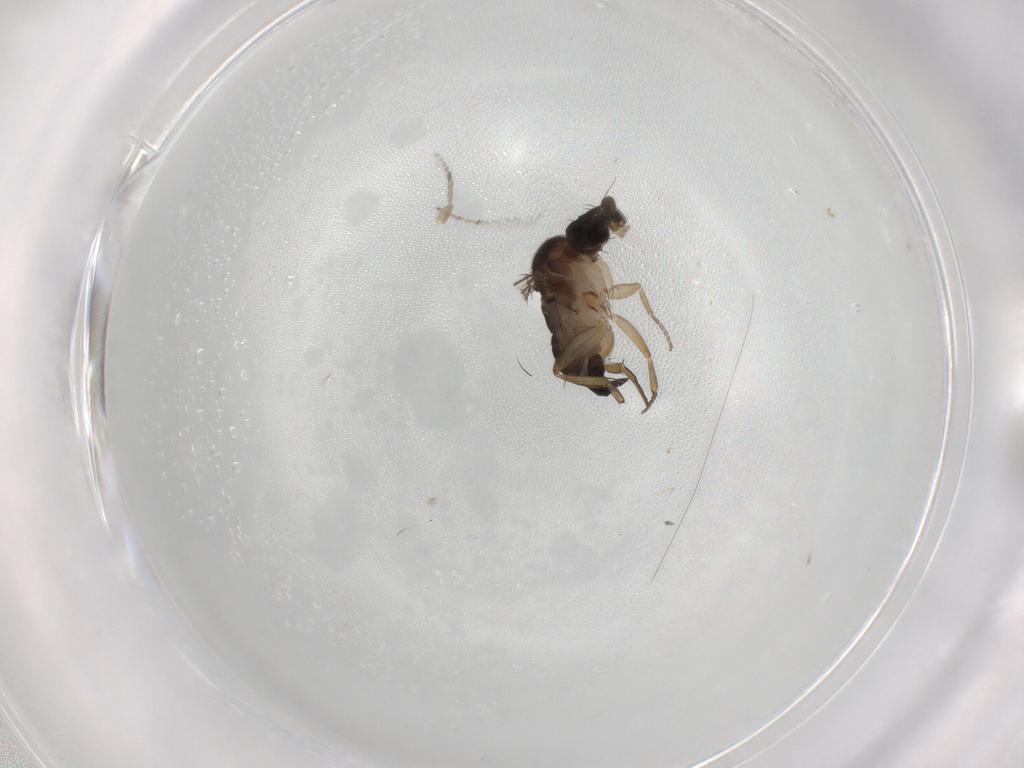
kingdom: Animalia
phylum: Arthropoda
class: Insecta
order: Diptera
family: Phoridae
